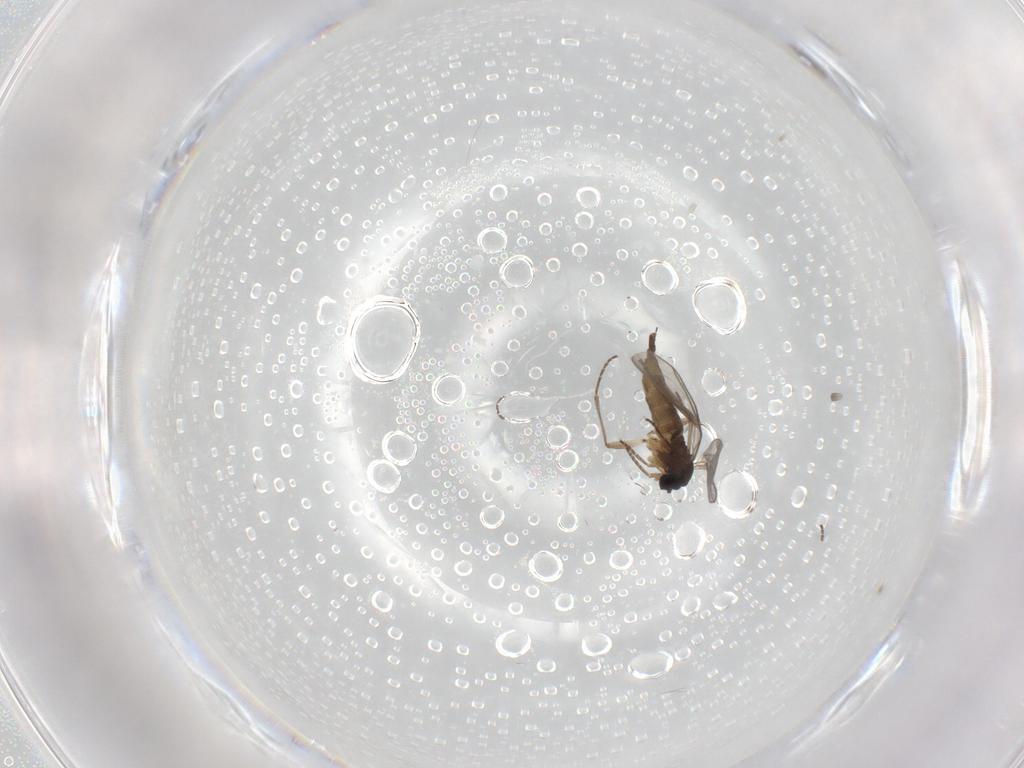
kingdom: Animalia
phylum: Arthropoda
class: Insecta
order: Diptera
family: Sciaridae
